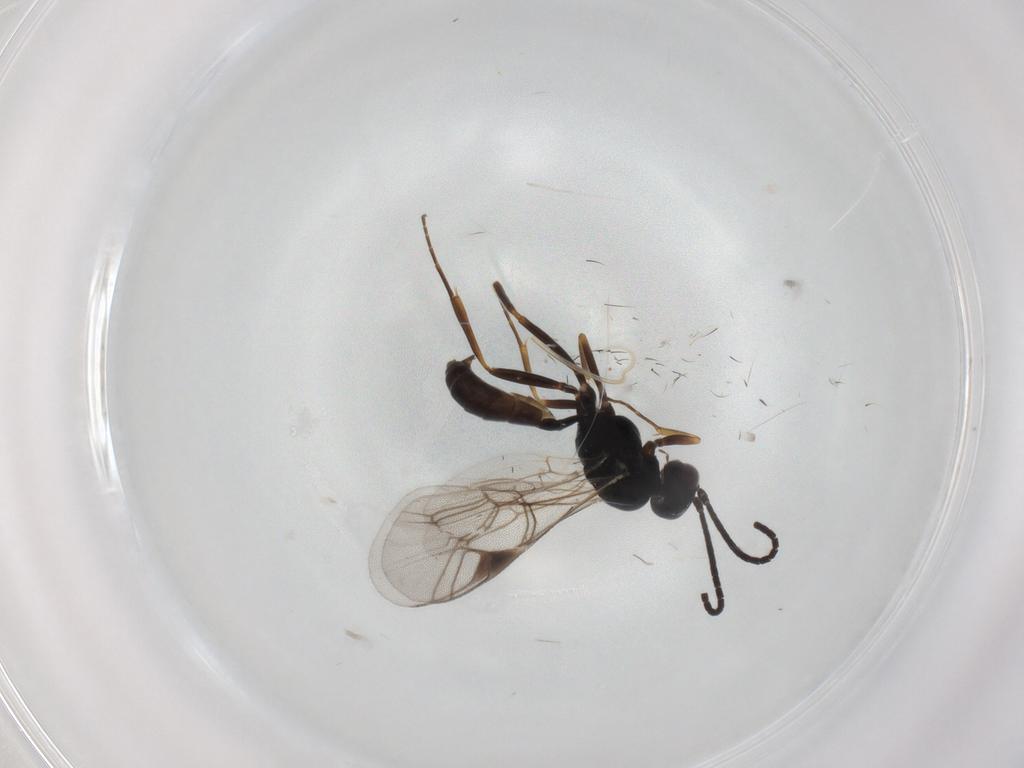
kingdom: Animalia
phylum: Arthropoda
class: Insecta
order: Hymenoptera
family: Ichneumonidae
